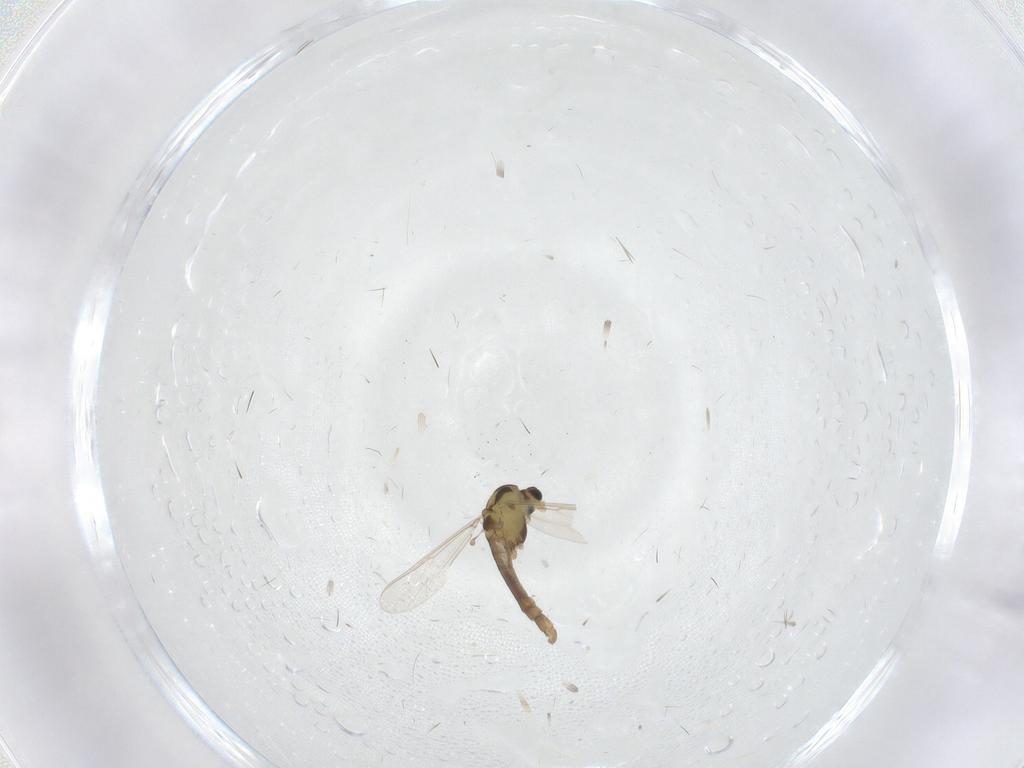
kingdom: Animalia
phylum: Arthropoda
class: Insecta
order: Diptera
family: Chironomidae
